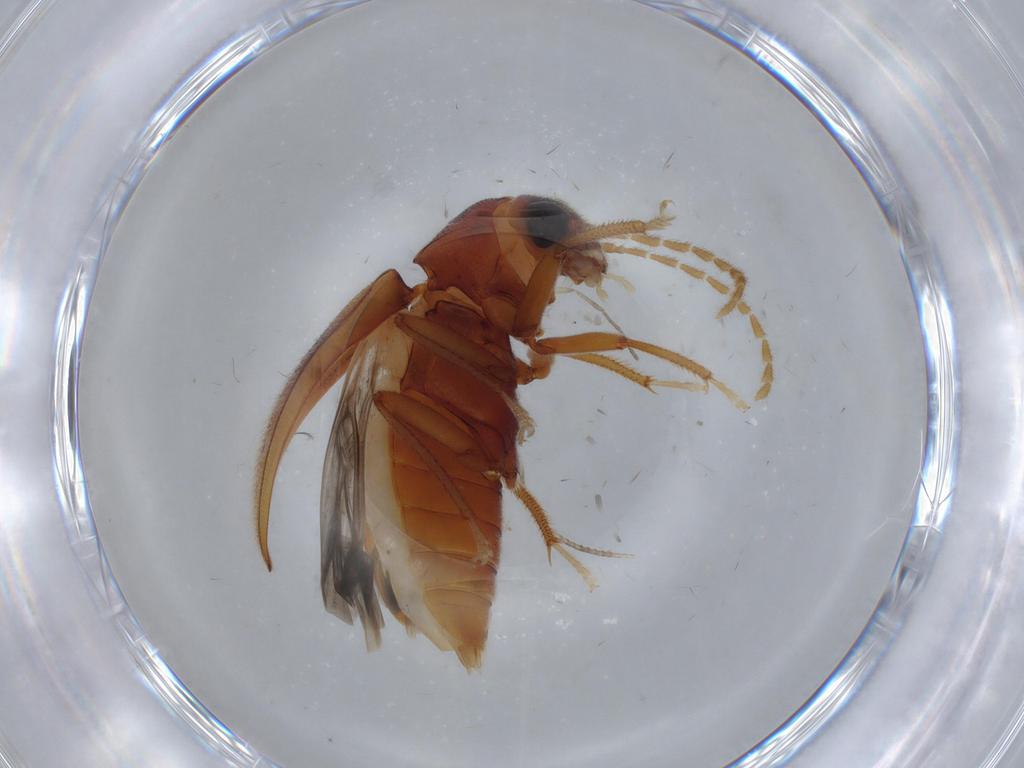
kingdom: Animalia
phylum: Arthropoda
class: Insecta
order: Coleoptera
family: Ptilodactylidae
